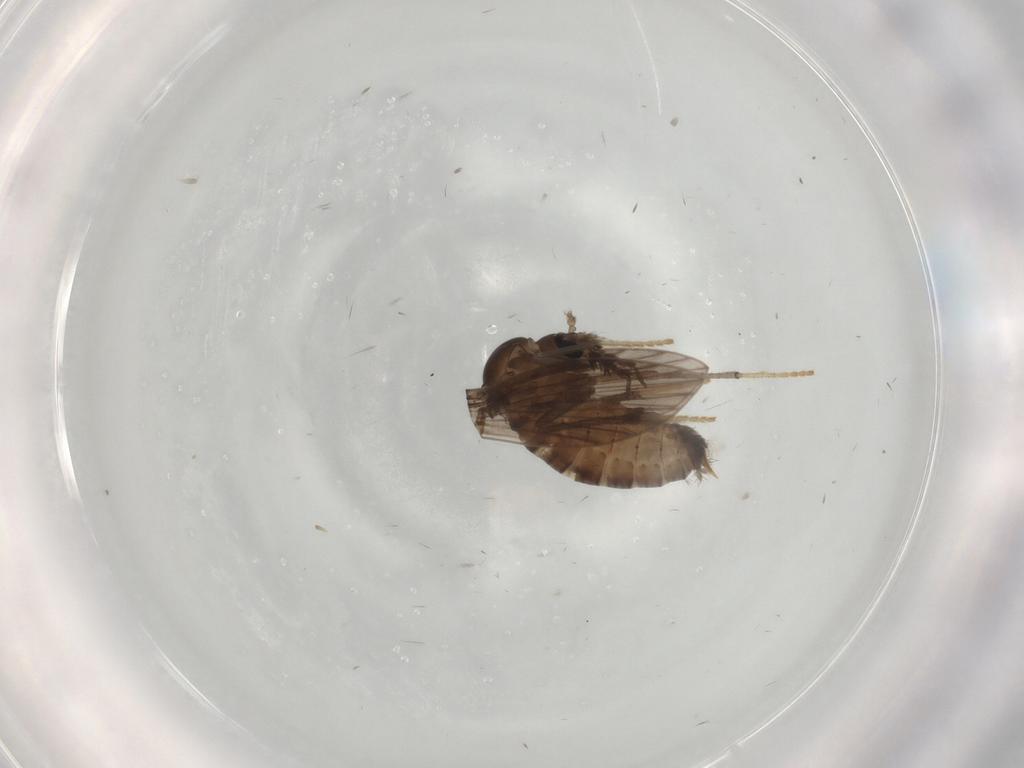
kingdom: Animalia
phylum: Arthropoda
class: Insecta
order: Diptera
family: Psychodidae
